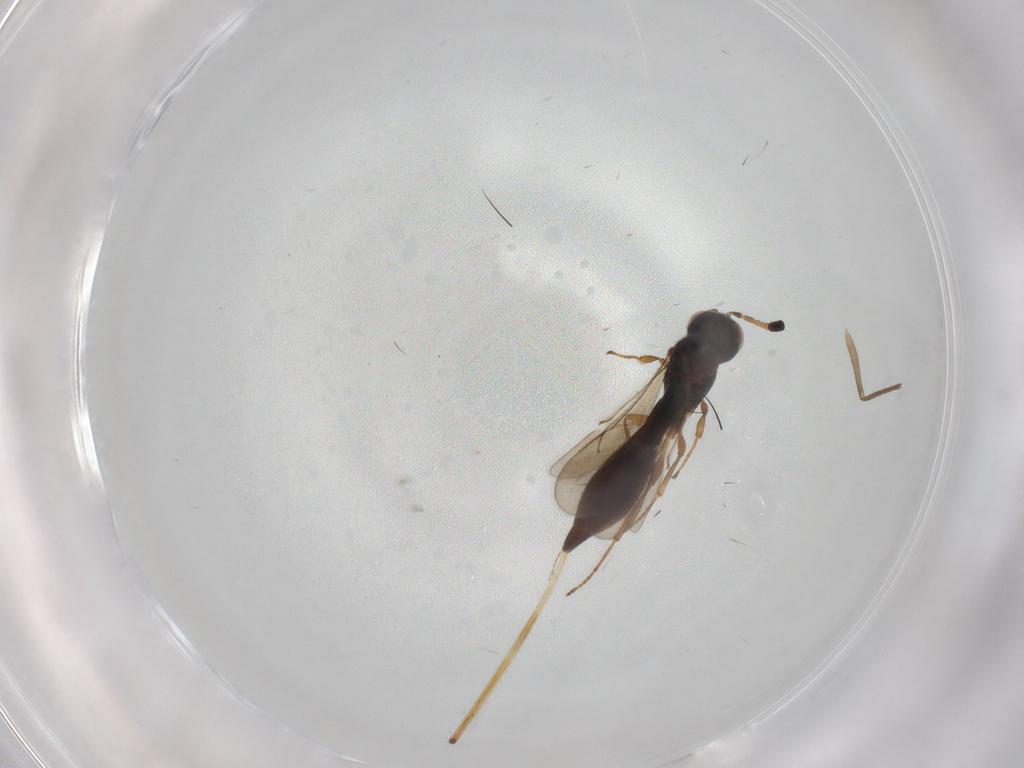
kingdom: Animalia
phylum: Arthropoda
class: Insecta
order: Hymenoptera
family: Scelionidae
